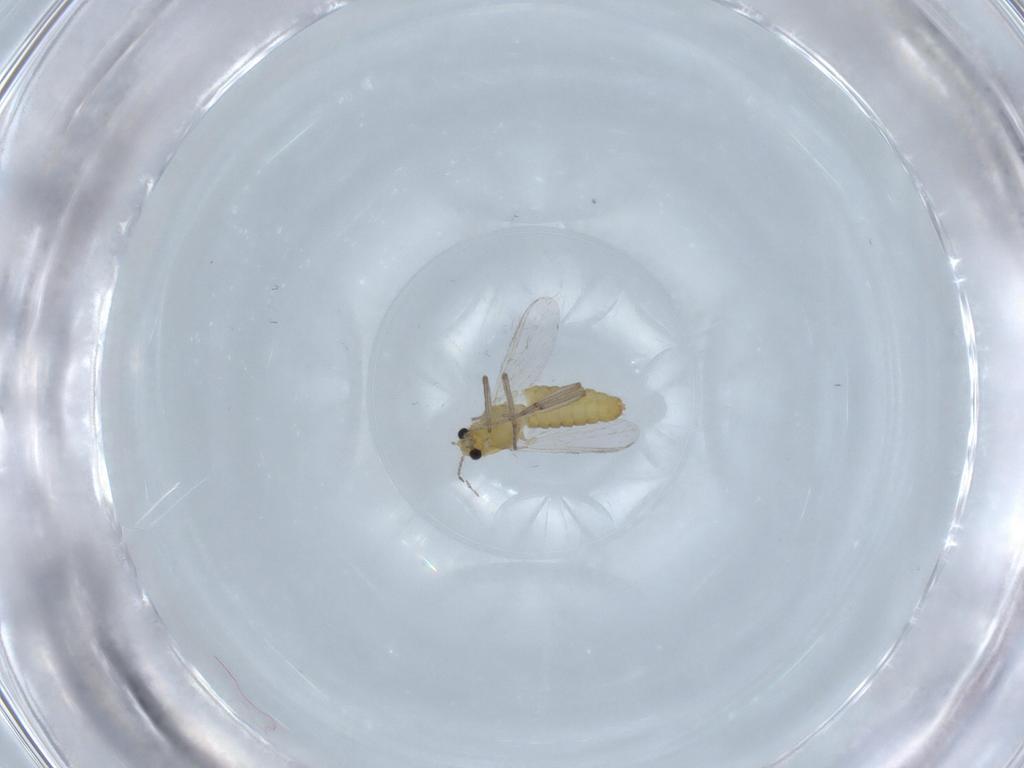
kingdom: Animalia
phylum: Arthropoda
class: Insecta
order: Diptera
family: Chironomidae
